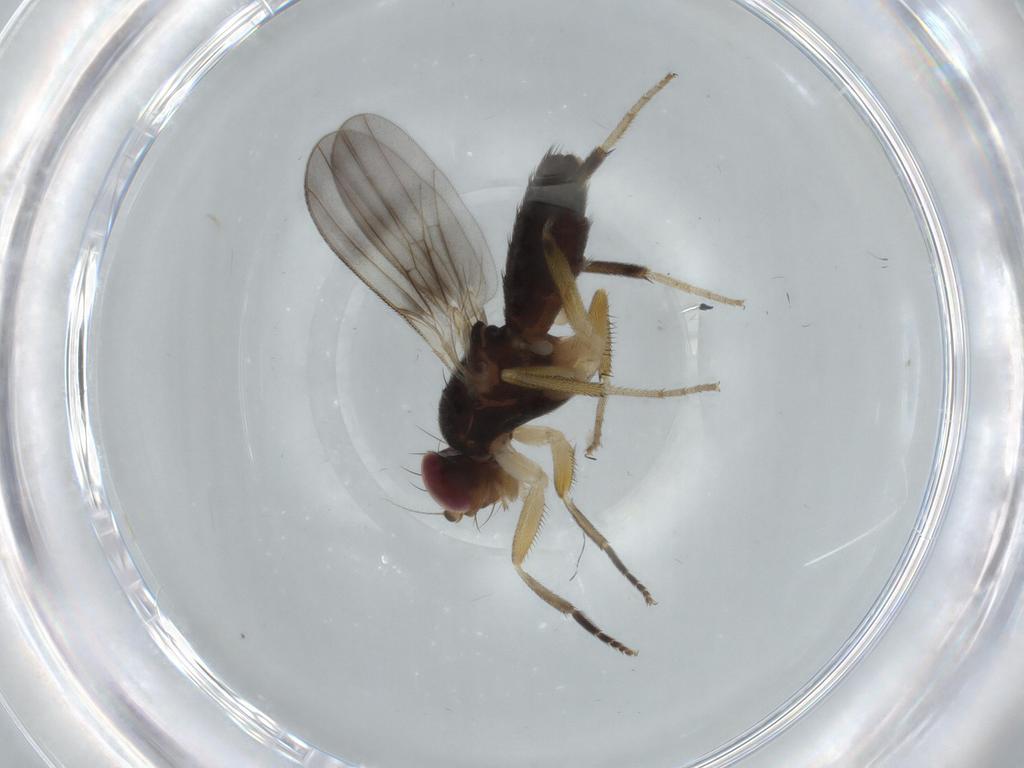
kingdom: Animalia
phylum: Arthropoda
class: Insecta
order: Diptera
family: Clusiidae
